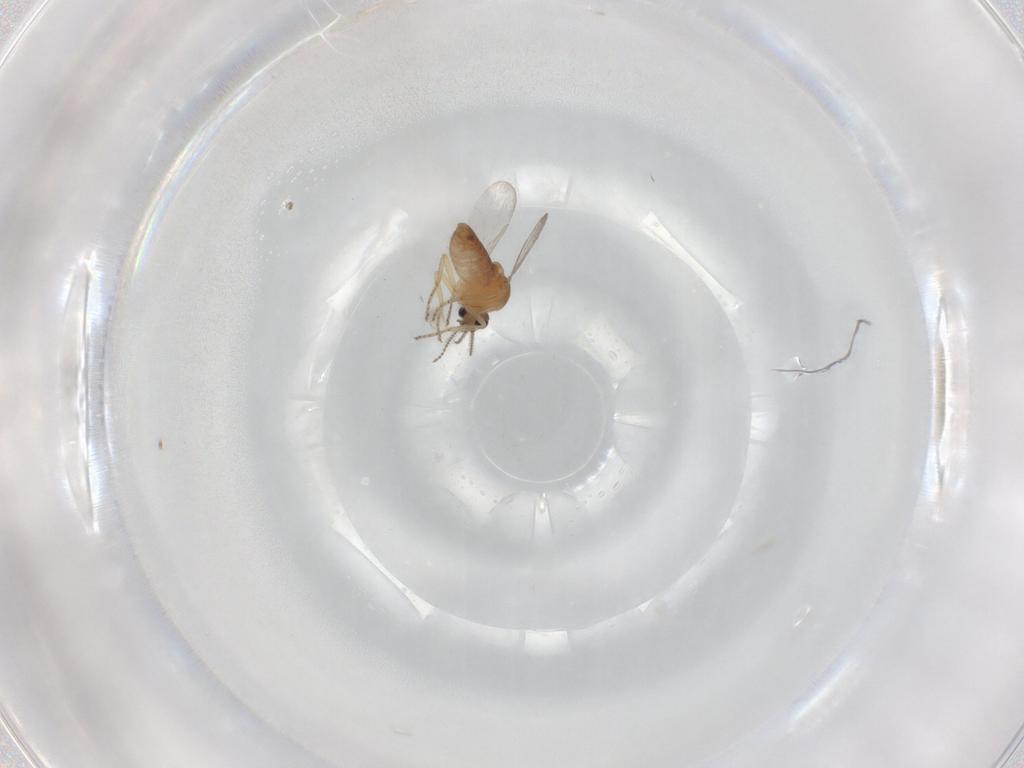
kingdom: Animalia
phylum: Arthropoda
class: Insecta
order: Diptera
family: Ceratopogonidae
